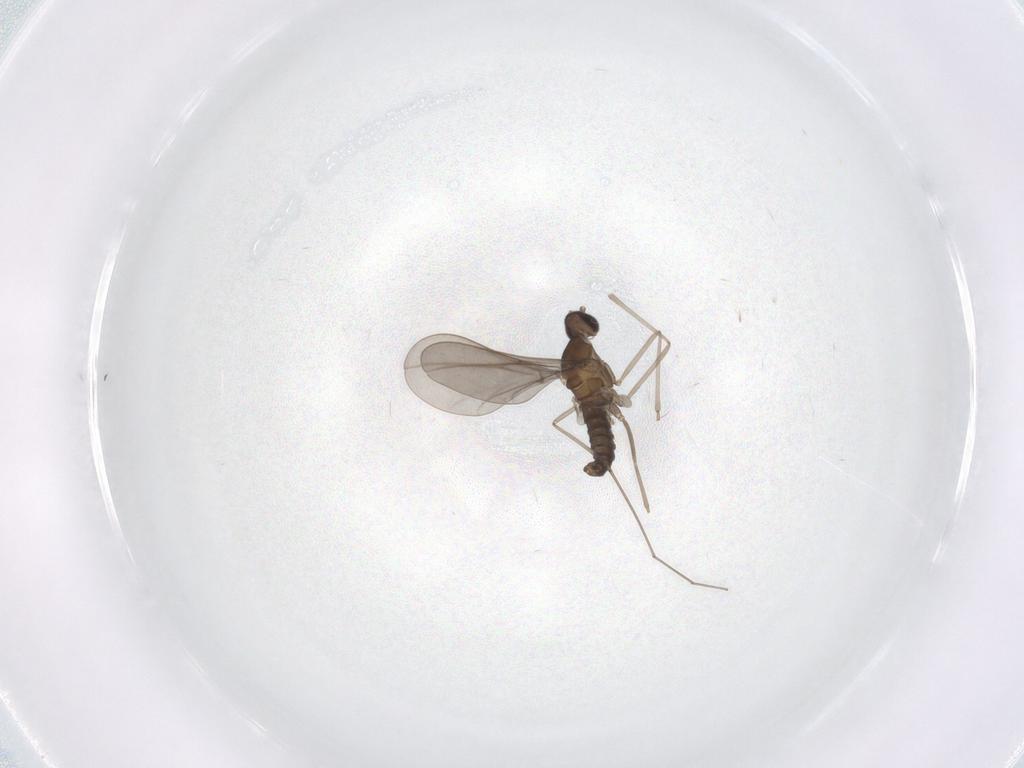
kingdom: Animalia
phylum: Arthropoda
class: Insecta
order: Diptera
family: Cecidomyiidae
